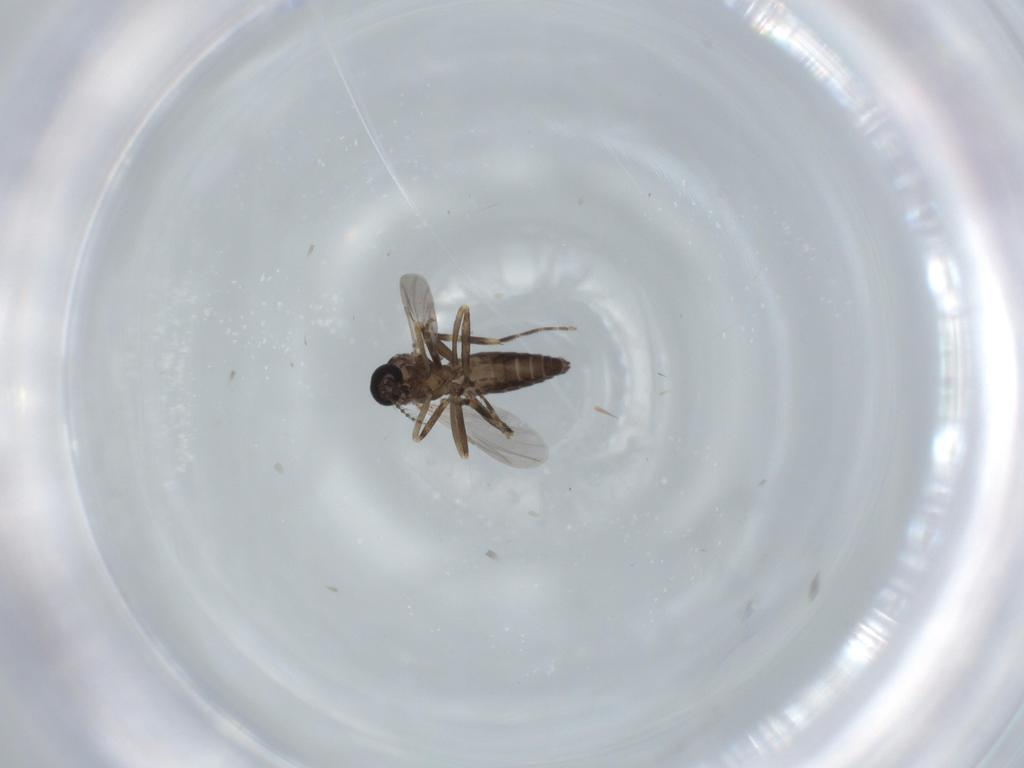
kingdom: Animalia
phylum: Arthropoda
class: Insecta
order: Diptera
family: Ceratopogonidae
